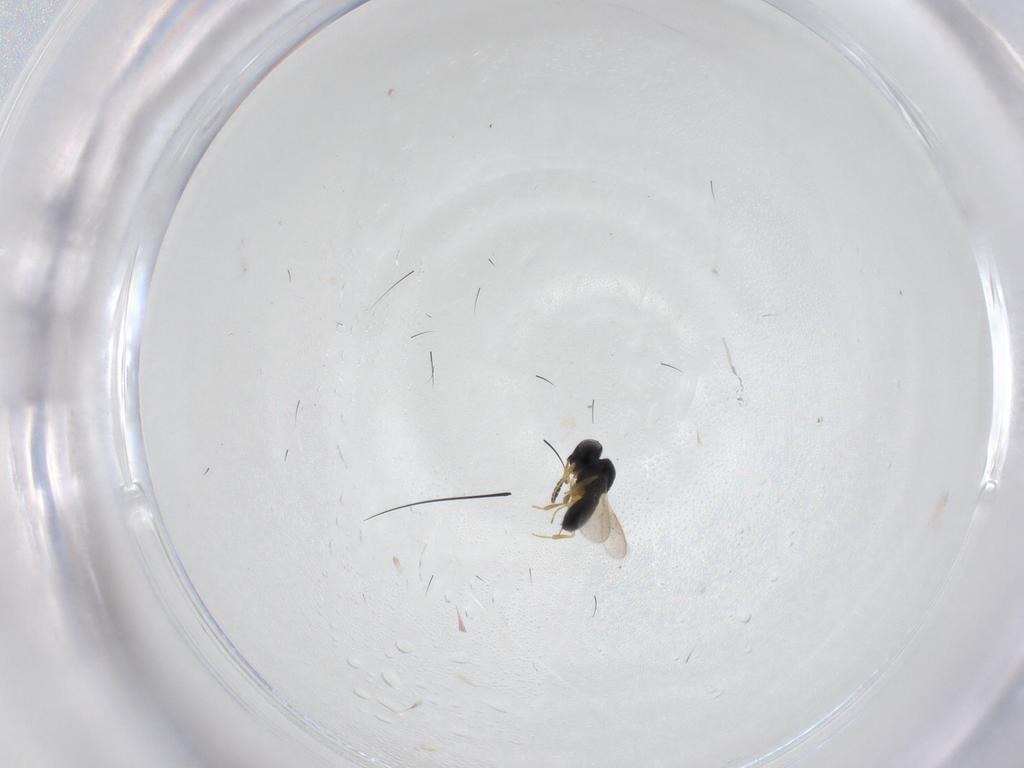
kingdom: Animalia
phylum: Arthropoda
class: Insecta
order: Hymenoptera
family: Scelionidae
